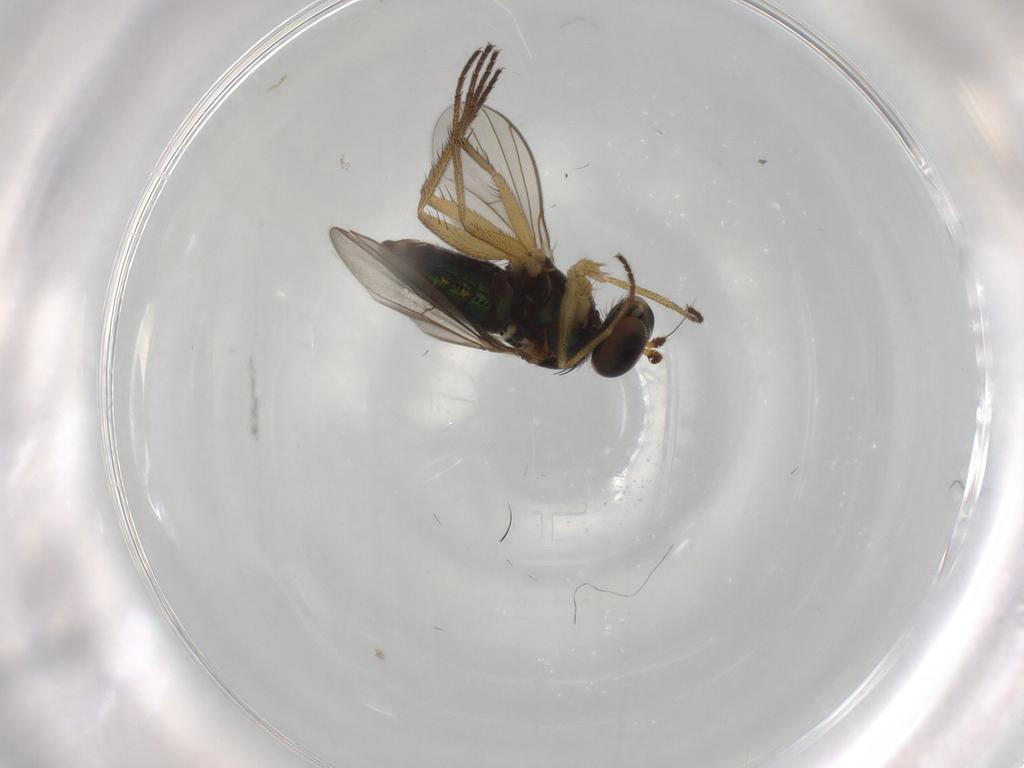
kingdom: Animalia
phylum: Arthropoda
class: Insecta
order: Diptera
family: Dolichopodidae
